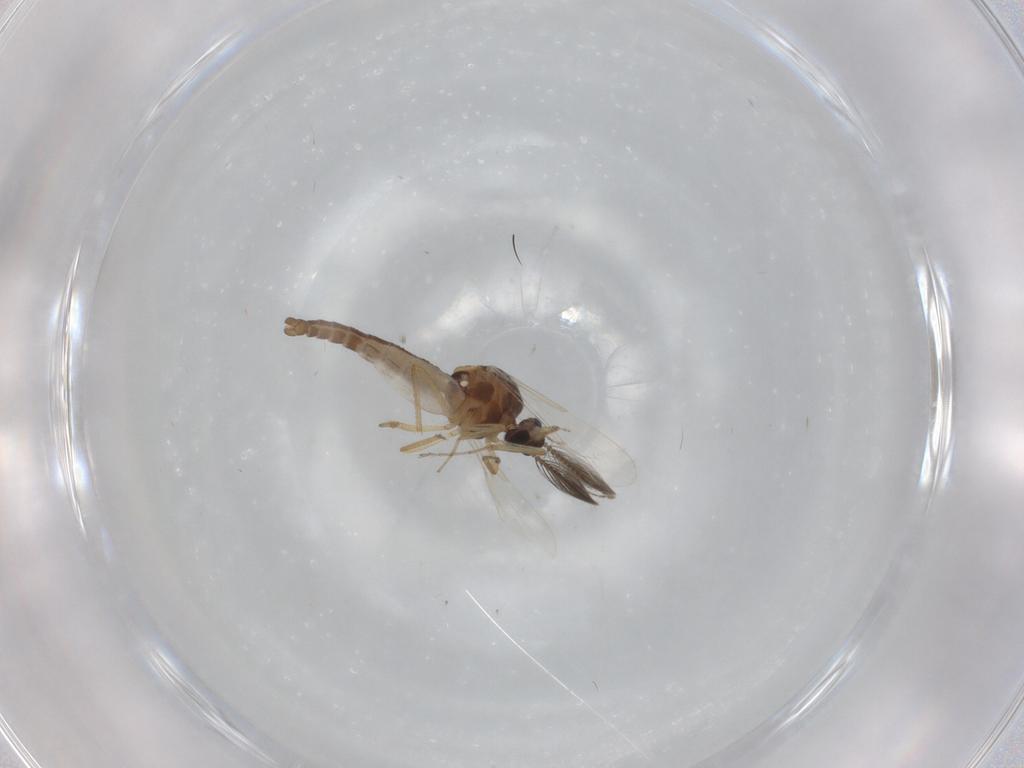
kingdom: Animalia
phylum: Arthropoda
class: Insecta
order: Diptera
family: Ceratopogonidae
